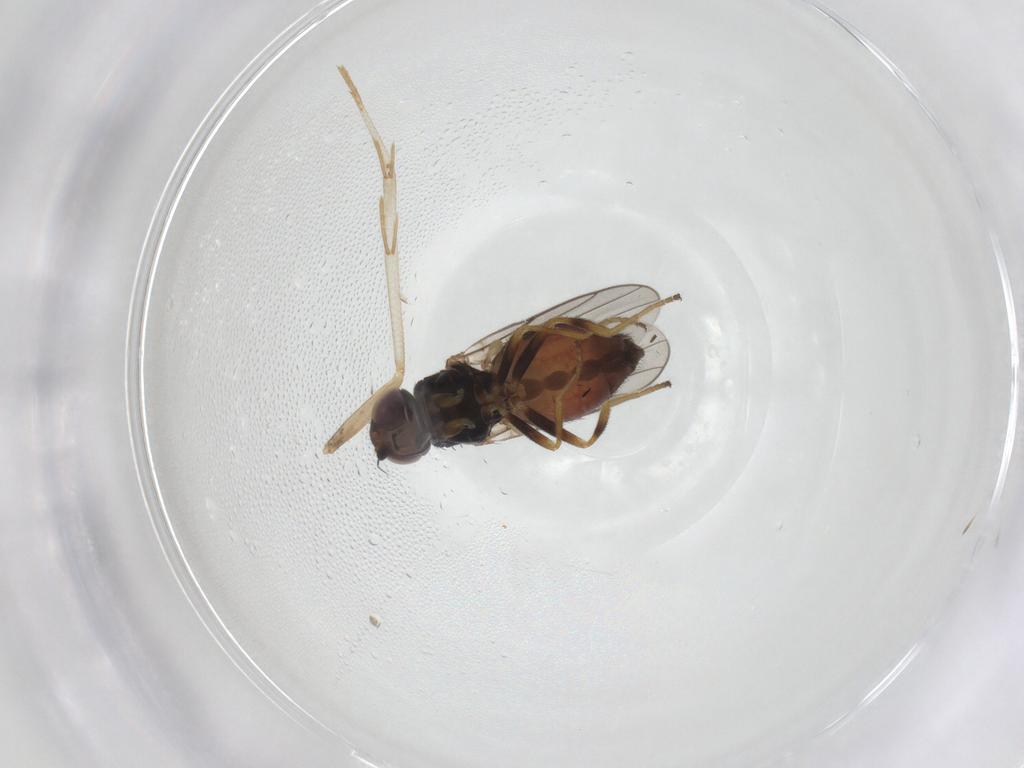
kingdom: Animalia
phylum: Arthropoda
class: Insecta
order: Diptera
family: Chloropidae
